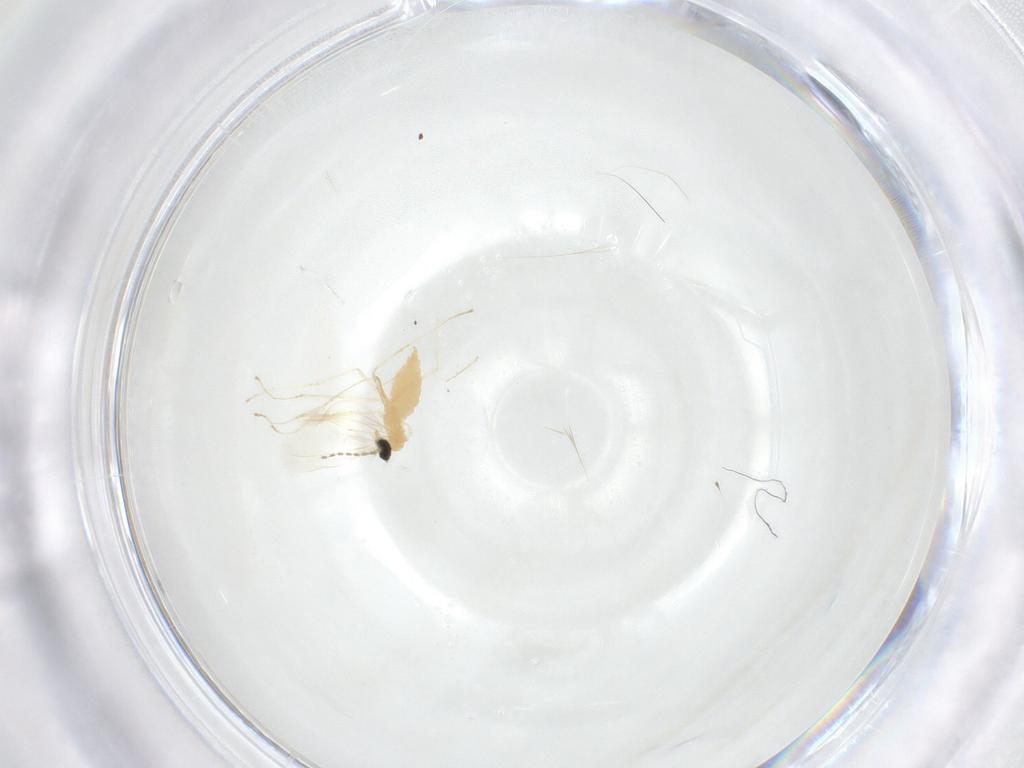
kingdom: Animalia
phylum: Arthropoda
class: Insecta
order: Diptera
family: Cecidomyiidae
